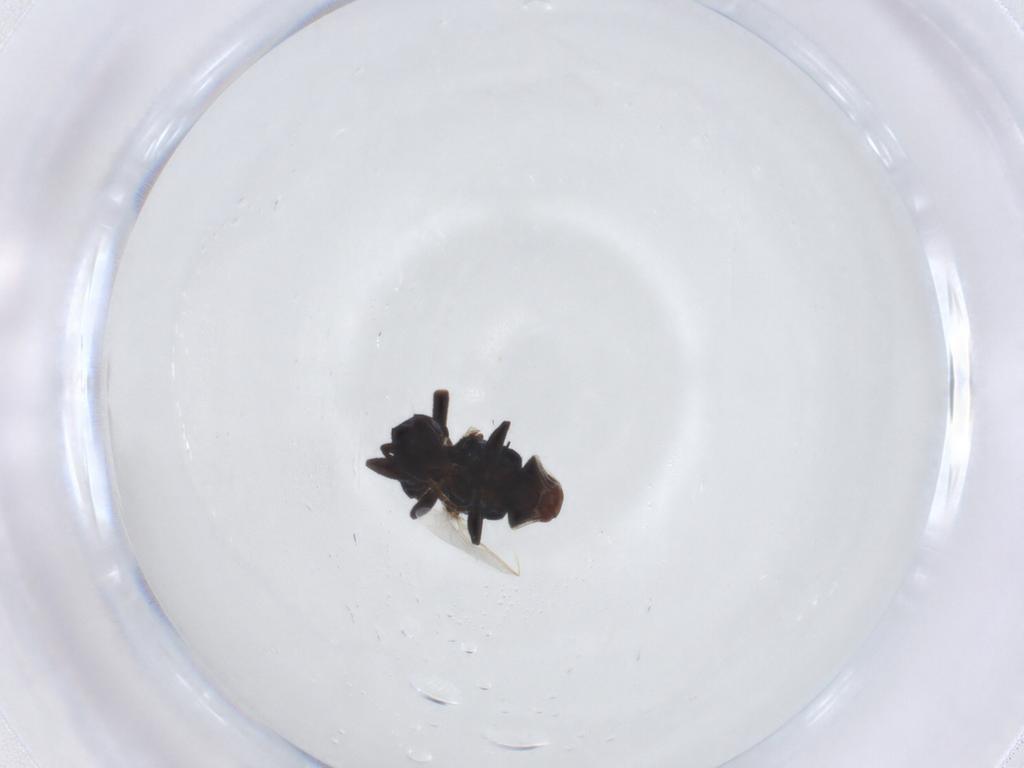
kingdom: Animalia
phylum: Arthropoda
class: Insecta
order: Diptera
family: Chloropidae
